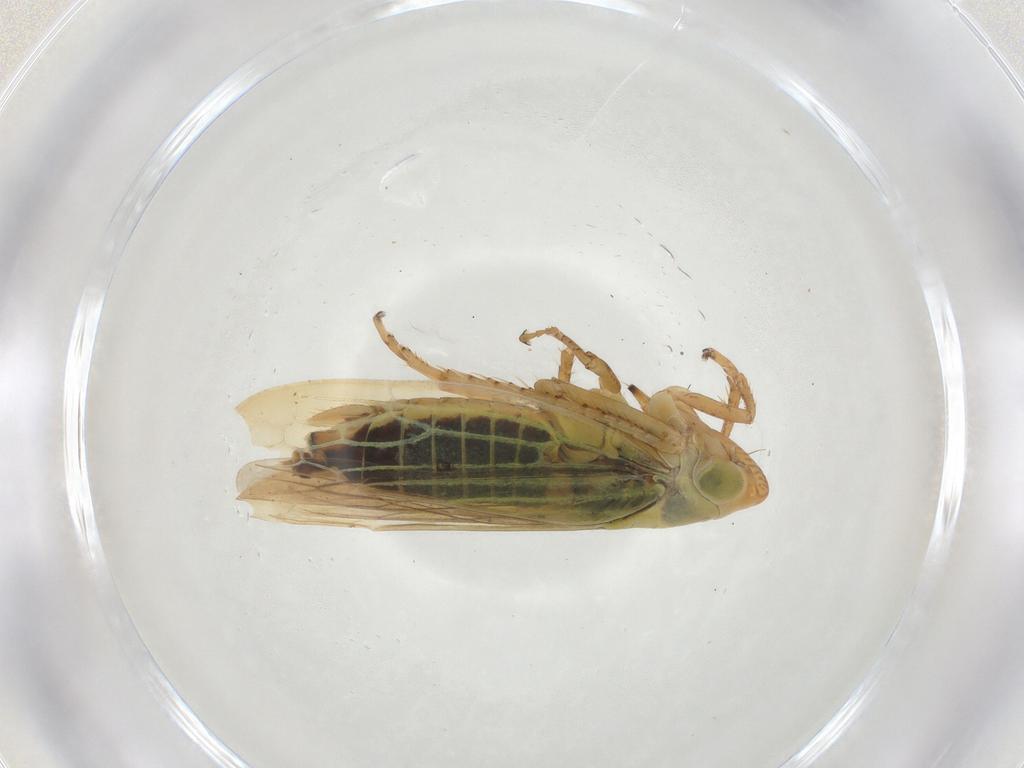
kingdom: Animalia
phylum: Arthropoda
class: Insecta
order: Hemiptera
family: Cicadellidae
